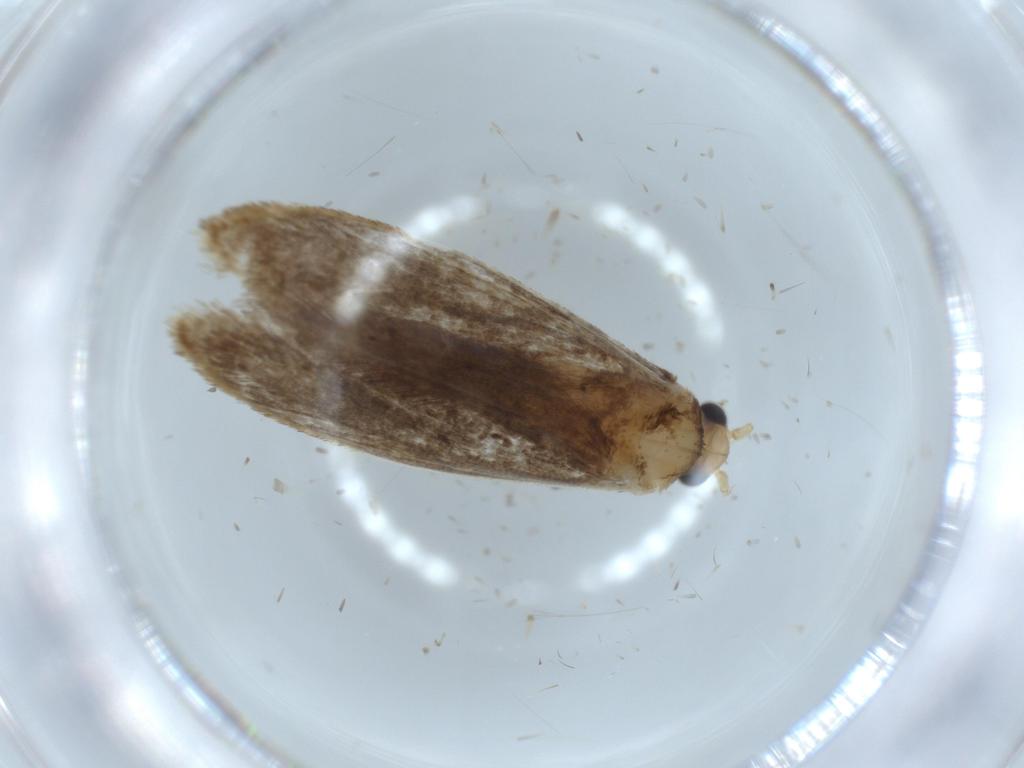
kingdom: Animalia
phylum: Arthropoda
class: Insecta
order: Lepidoptera
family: Tineidae
